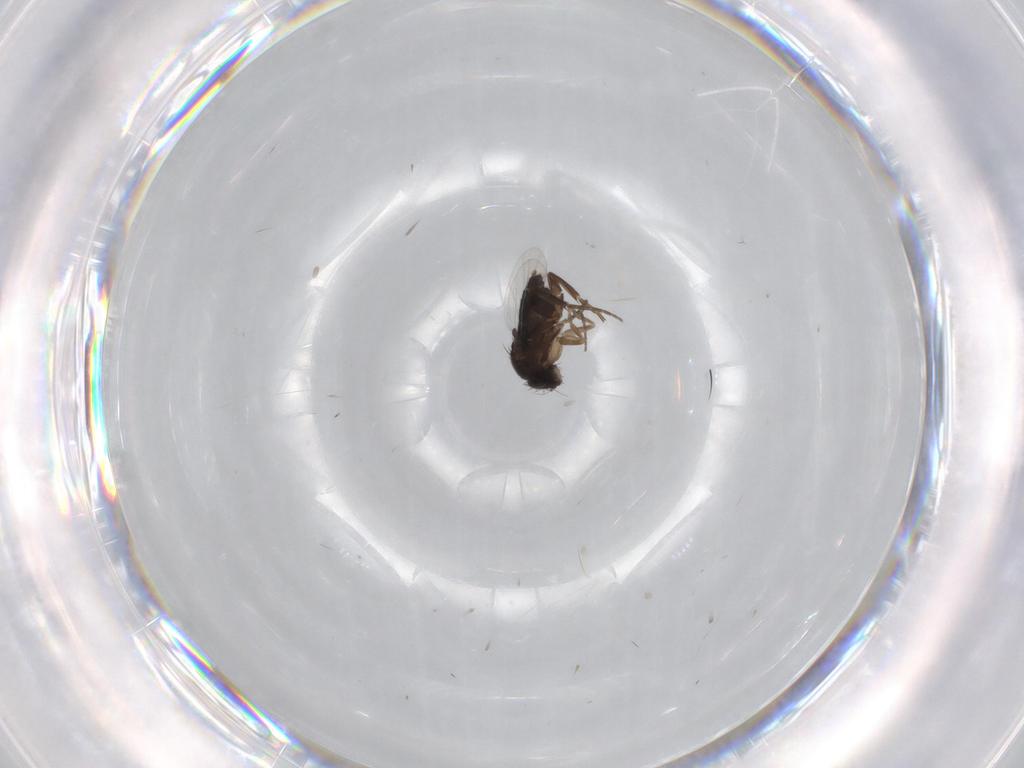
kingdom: Animalia
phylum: Arthropoda
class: Insecta
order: Diptera
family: Phoridae
